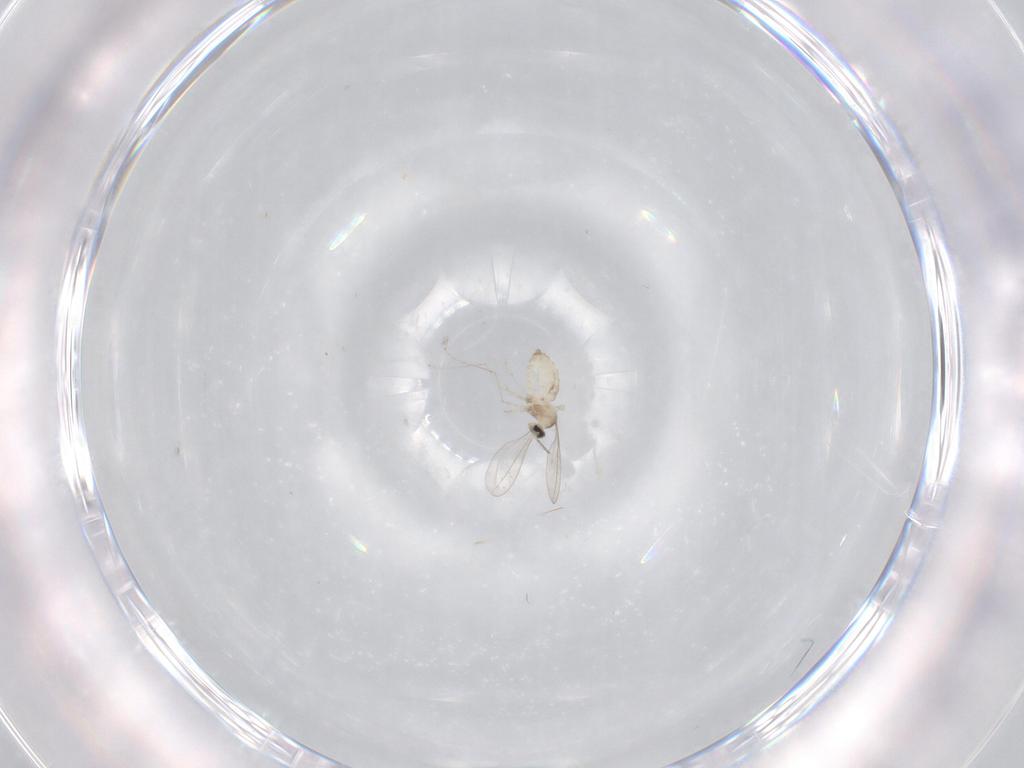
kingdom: Animalia
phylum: Arthropoda
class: Insecta
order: Diptera
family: Cecidomyiidae
